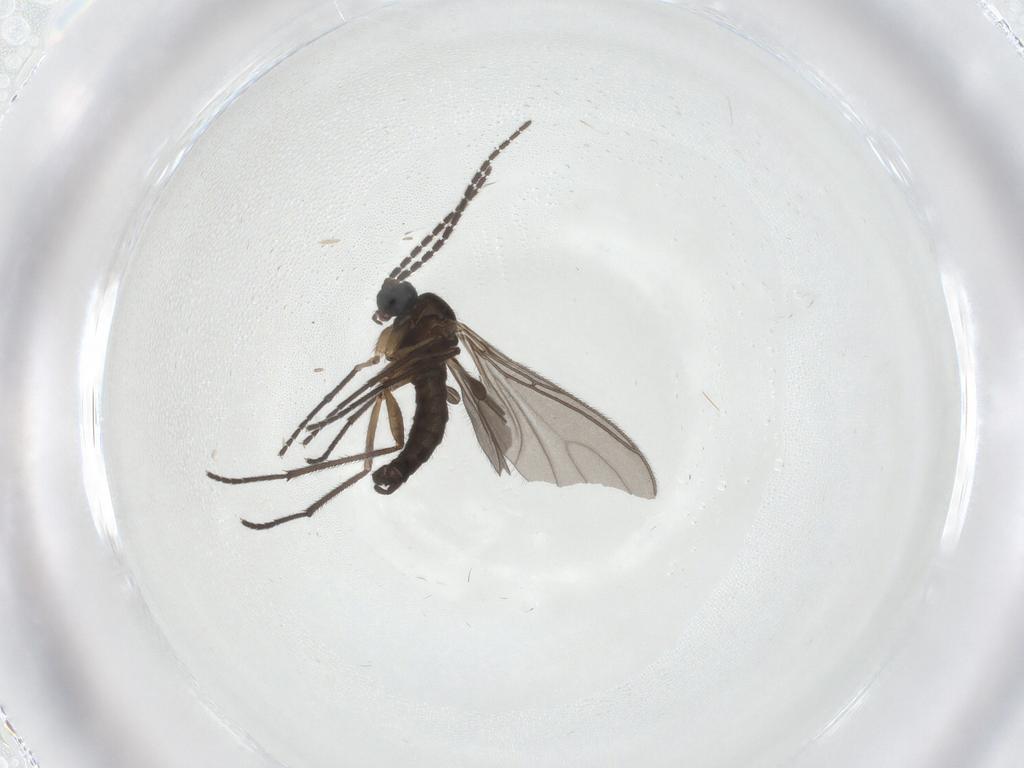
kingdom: Animalia
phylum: Arthropoda
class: Insecta
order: Diptera
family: Sciaridae
